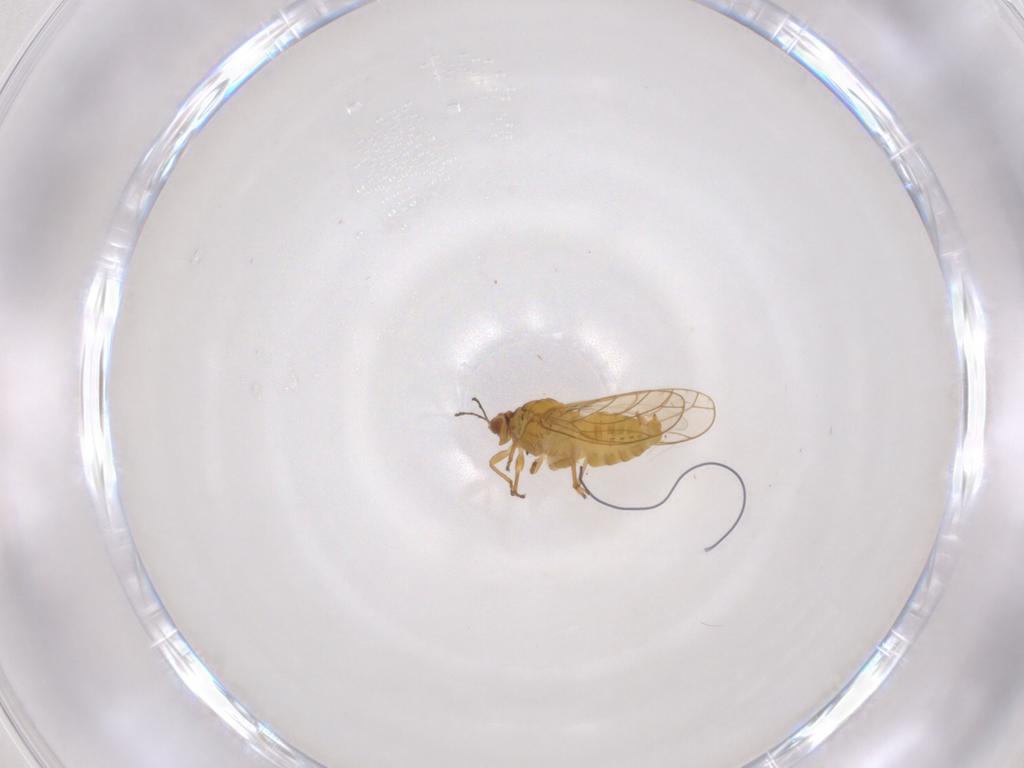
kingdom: Animalia
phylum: Arthropoda
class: Insecta
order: Hemiptera
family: Psylloidea_incertae_sedis
